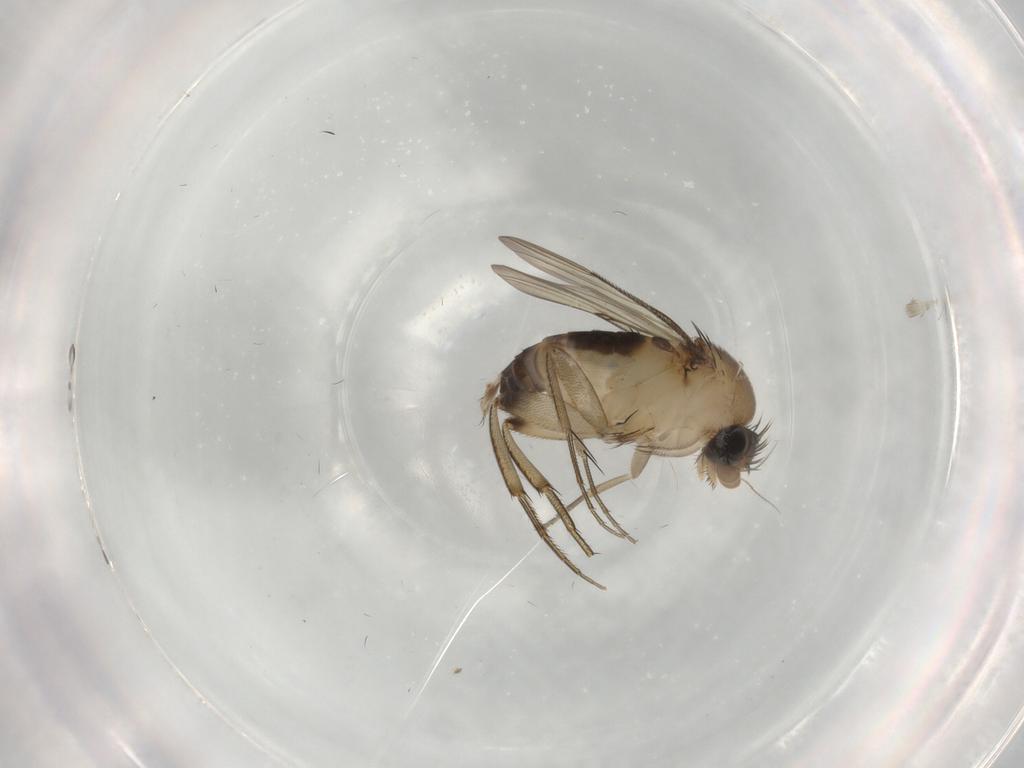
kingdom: Animalia
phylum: Arthropoda
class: Insecta
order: Diptera
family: Phoridae
